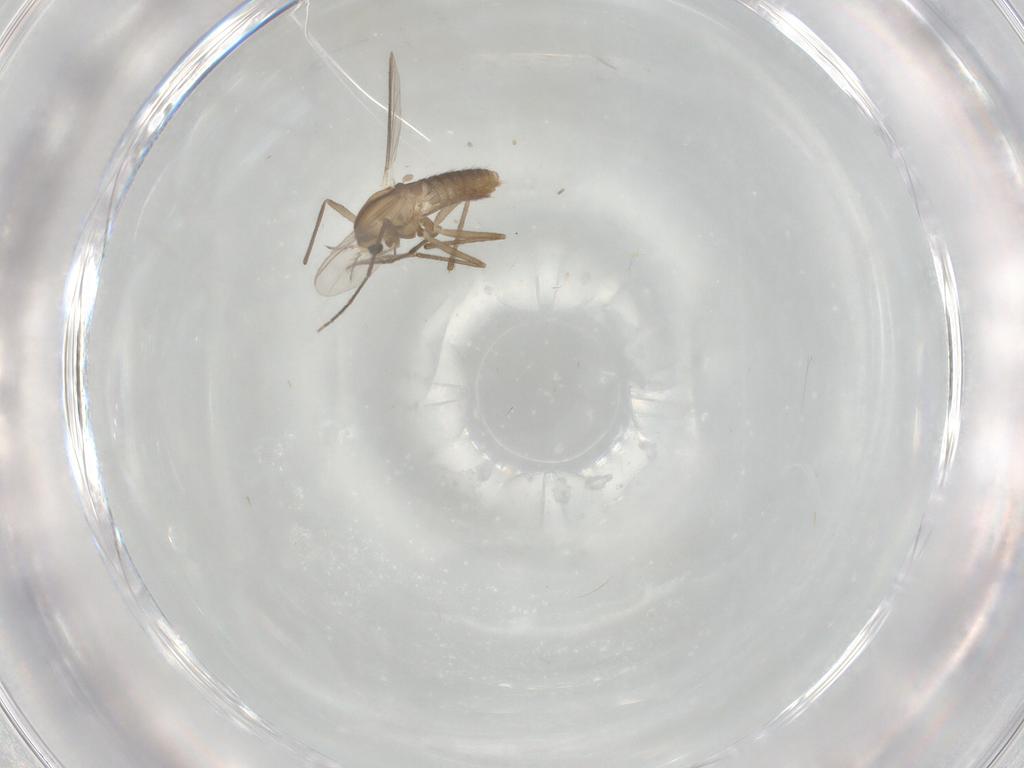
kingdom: Animalia
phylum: Arthropoda
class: Insecta
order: Diptera
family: Chironomidae
